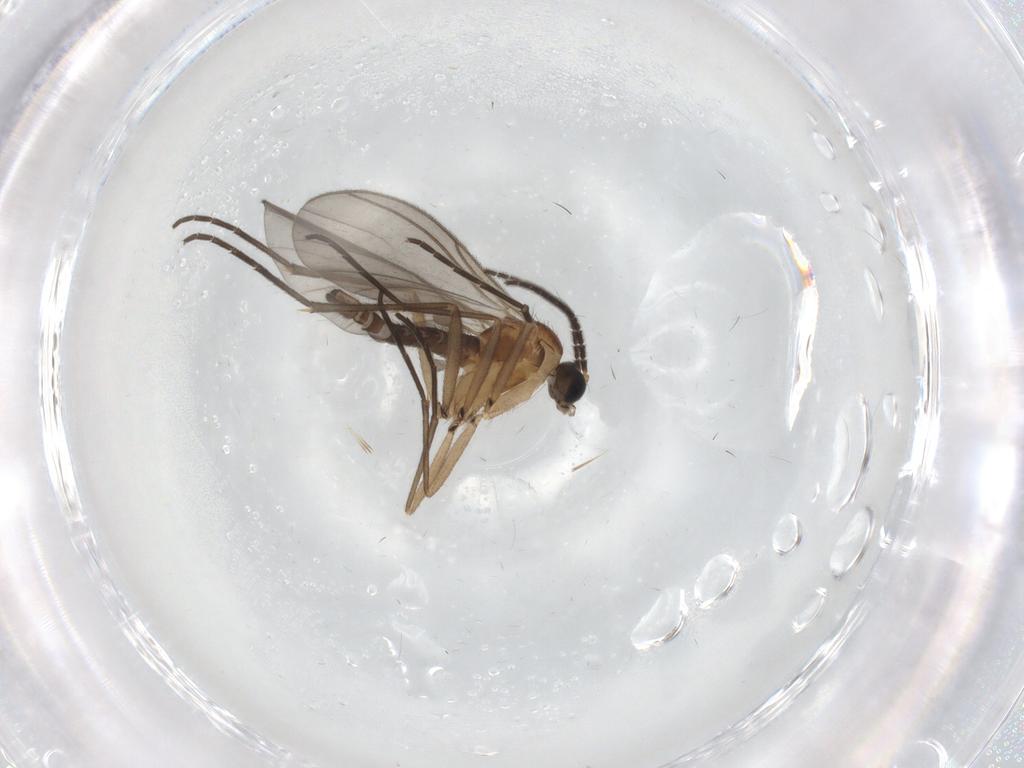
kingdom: Animalia
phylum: Arthropoda
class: Insecta
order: Diptera
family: Sciaridae
